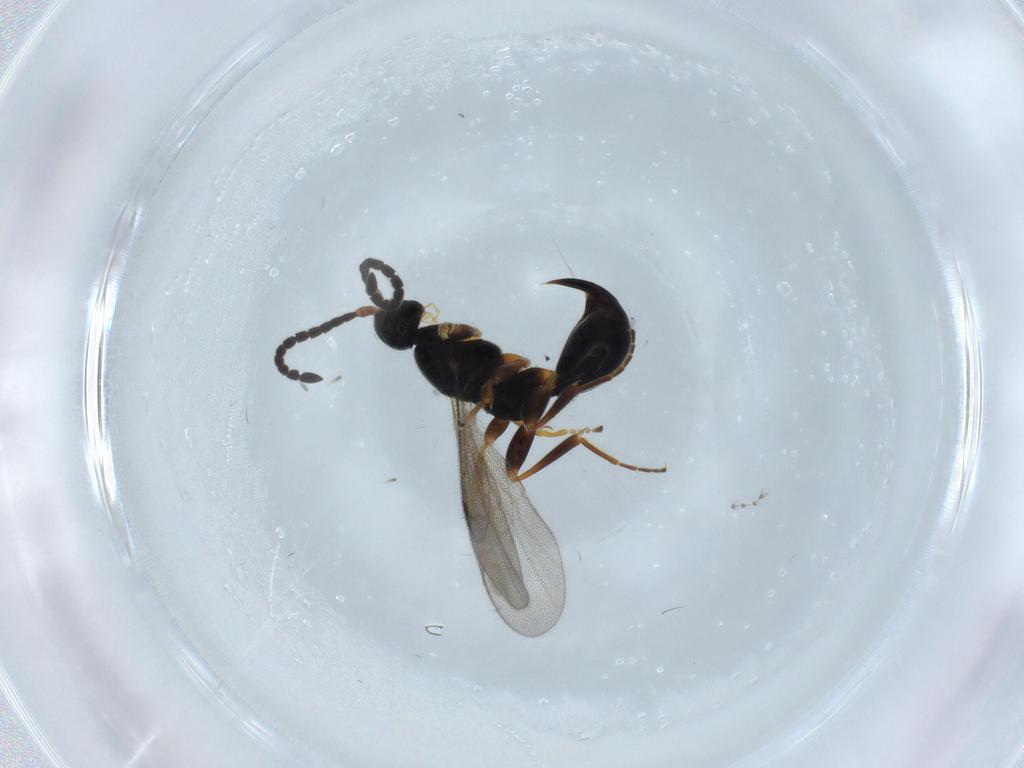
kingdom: Animalia
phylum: Arthropoda
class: Insecta
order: Hymenoptera
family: Proctotrupidae
